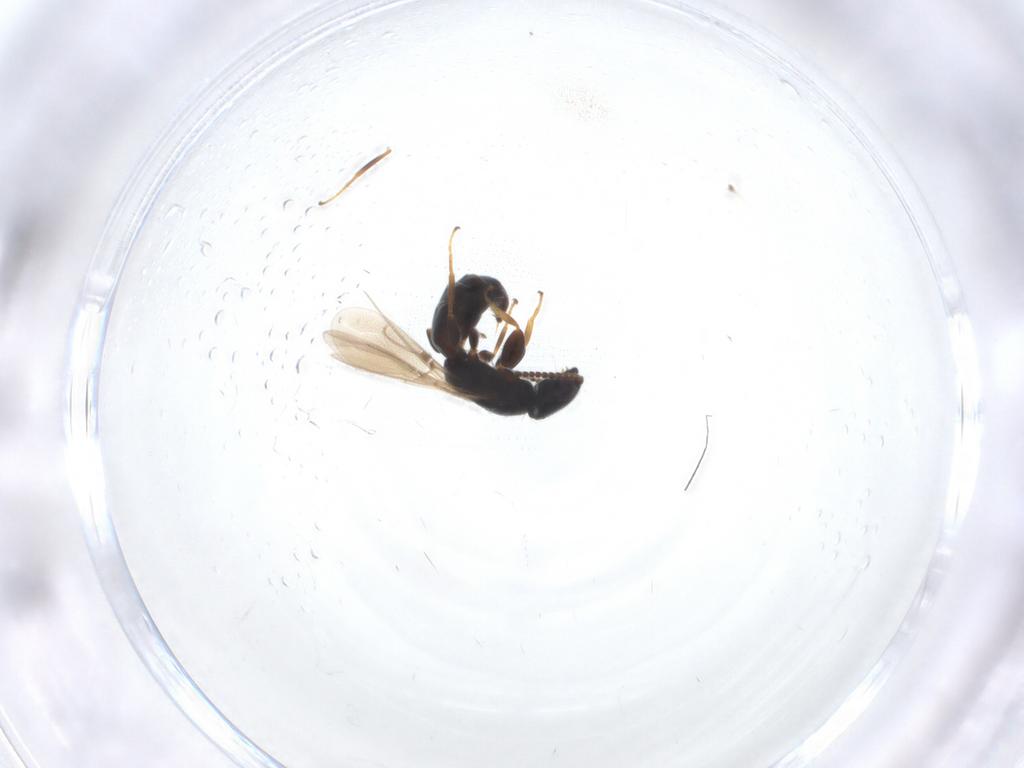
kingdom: Animalia
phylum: Arthropoda
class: Insecta
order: Hymenoptera
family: Bethylidae
